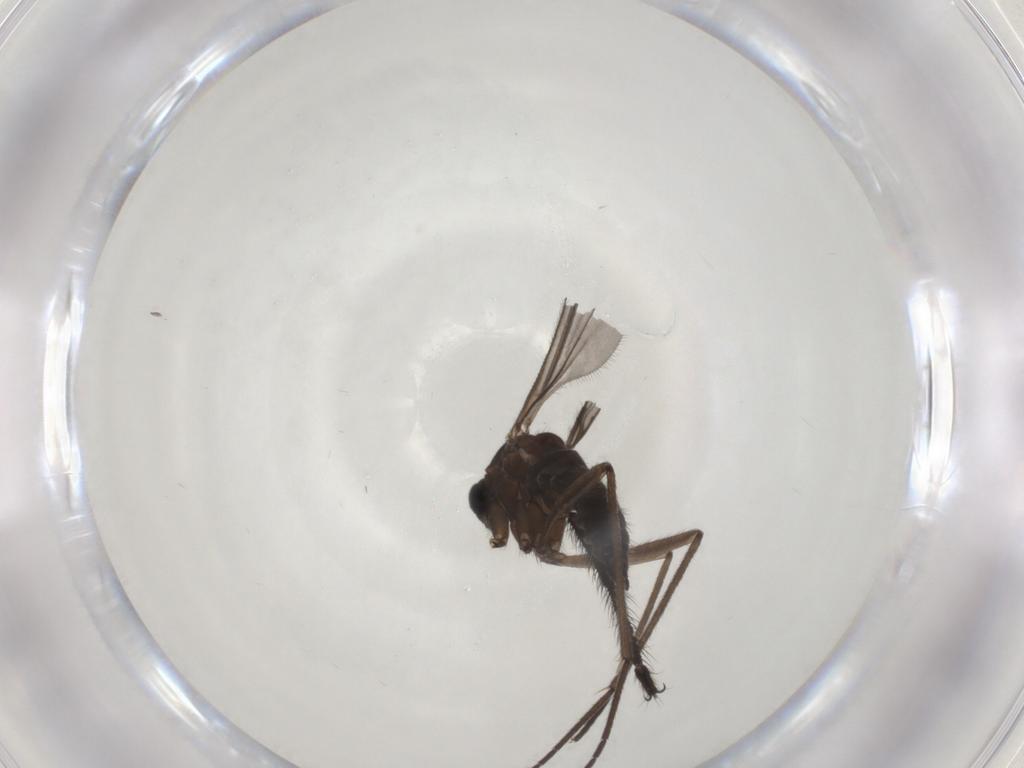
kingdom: Animalia
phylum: Arthropoda
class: Insecta
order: Diptera
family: Sciaridae
